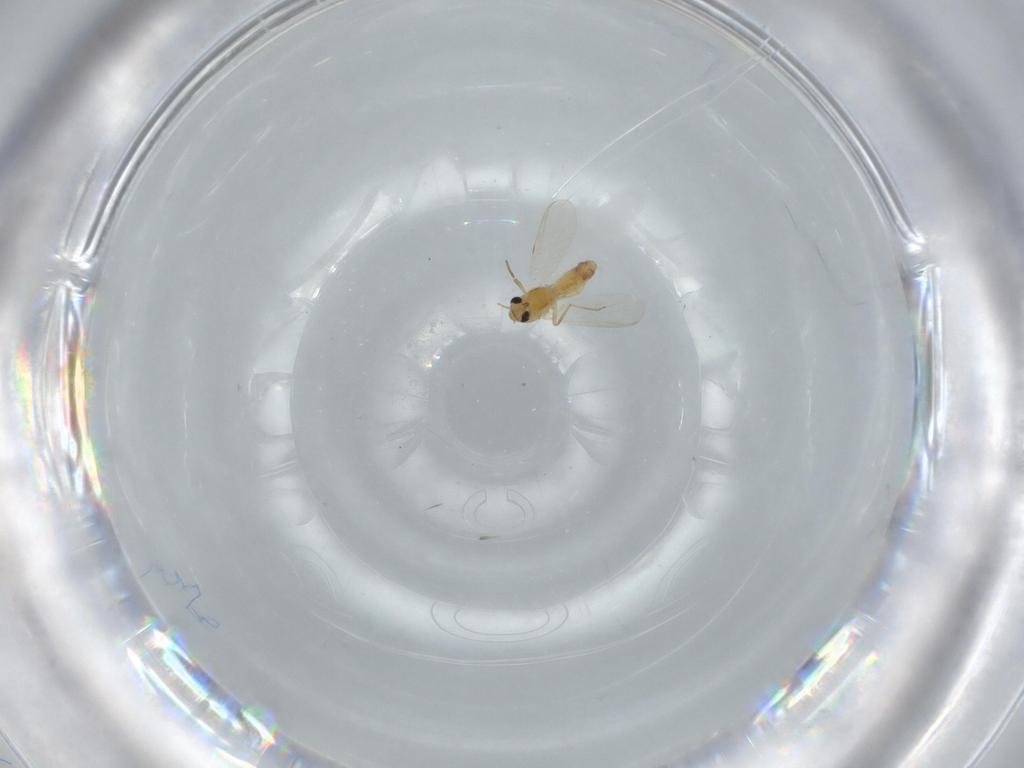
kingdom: Animalia
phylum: Arthropoda
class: Insecta
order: Diptera
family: Chironomidae
